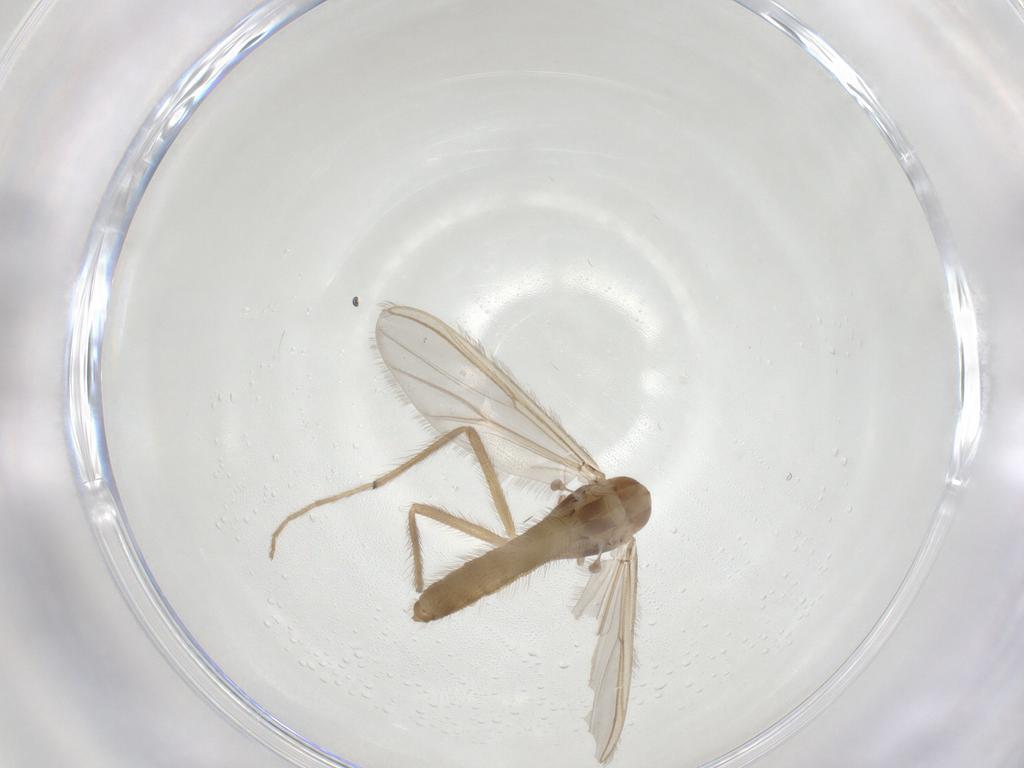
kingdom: Animalia
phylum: Arthropoda
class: Insecta
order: Diptera
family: Chironomidae
